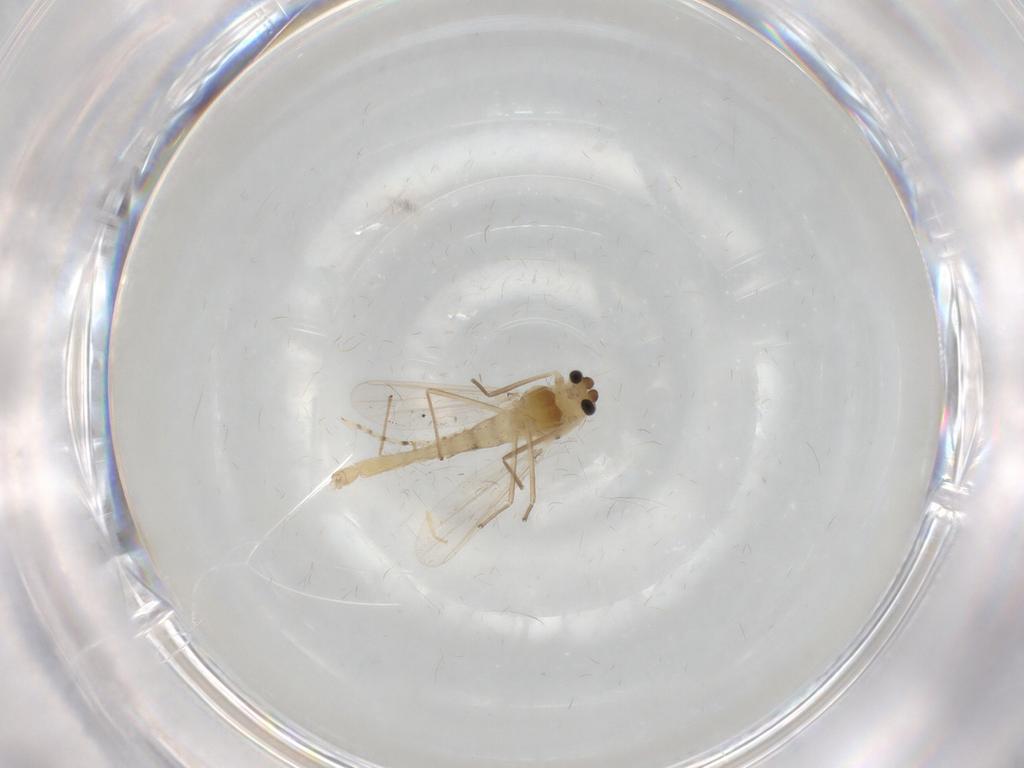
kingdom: Animalia
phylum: Arthropoda
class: Insecta
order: Diptera
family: Chironomidae
